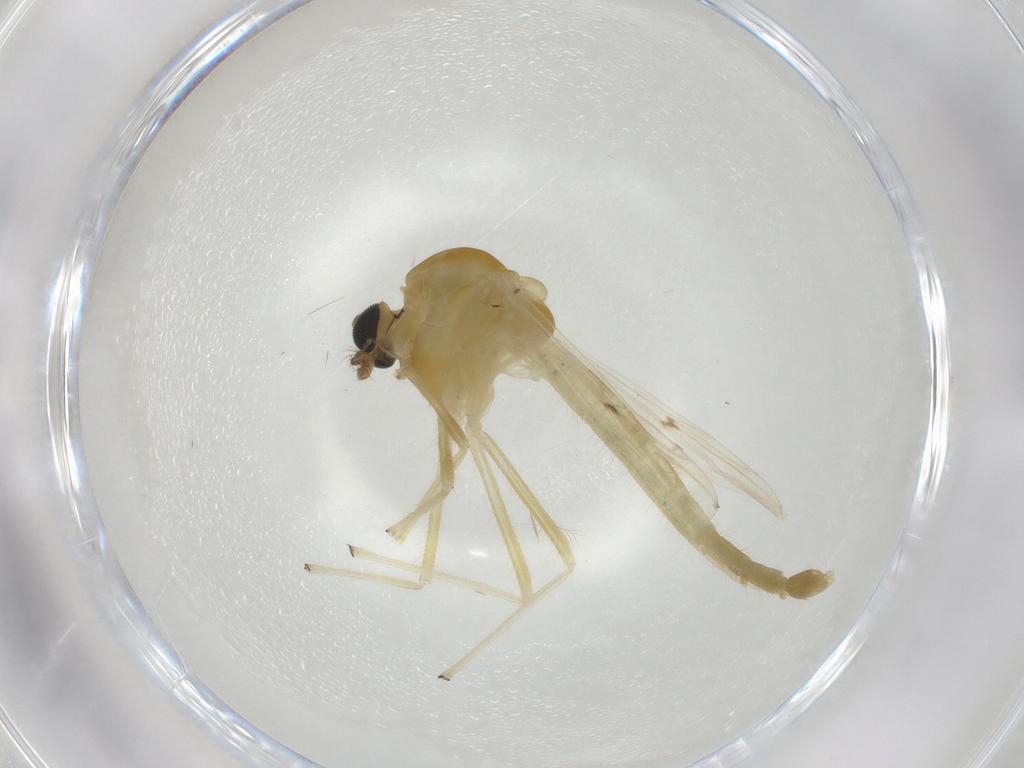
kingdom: Animalia
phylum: Arthropoda
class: Insecta
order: Diptera
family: Chironomidae
